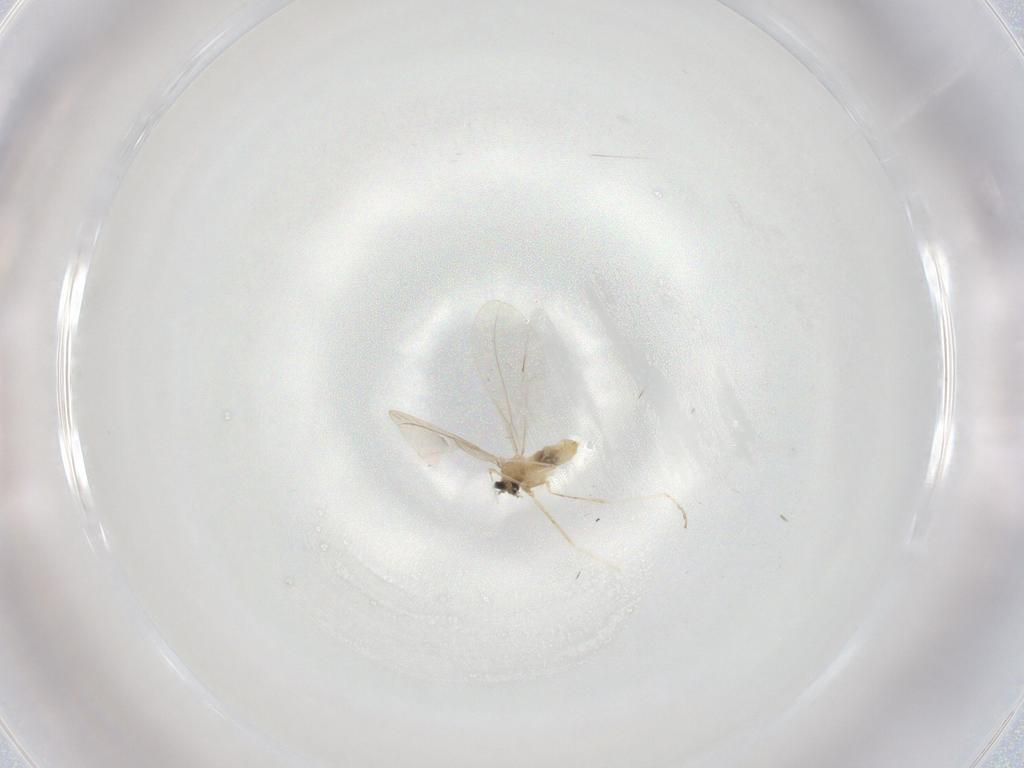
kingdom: Animalia
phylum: Arthropoda
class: Insecta
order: Diptera
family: Cecidomyiidae
